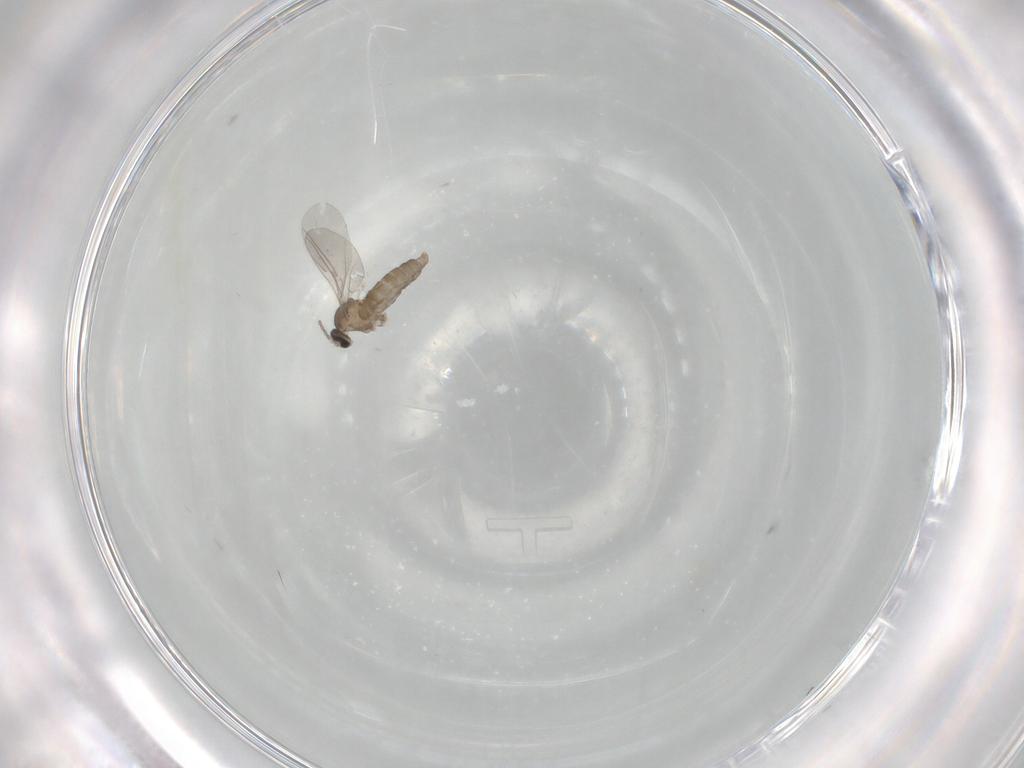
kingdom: Animalia
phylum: Arthropoda
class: Insecta
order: Diptera
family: Cecidomyiidae
